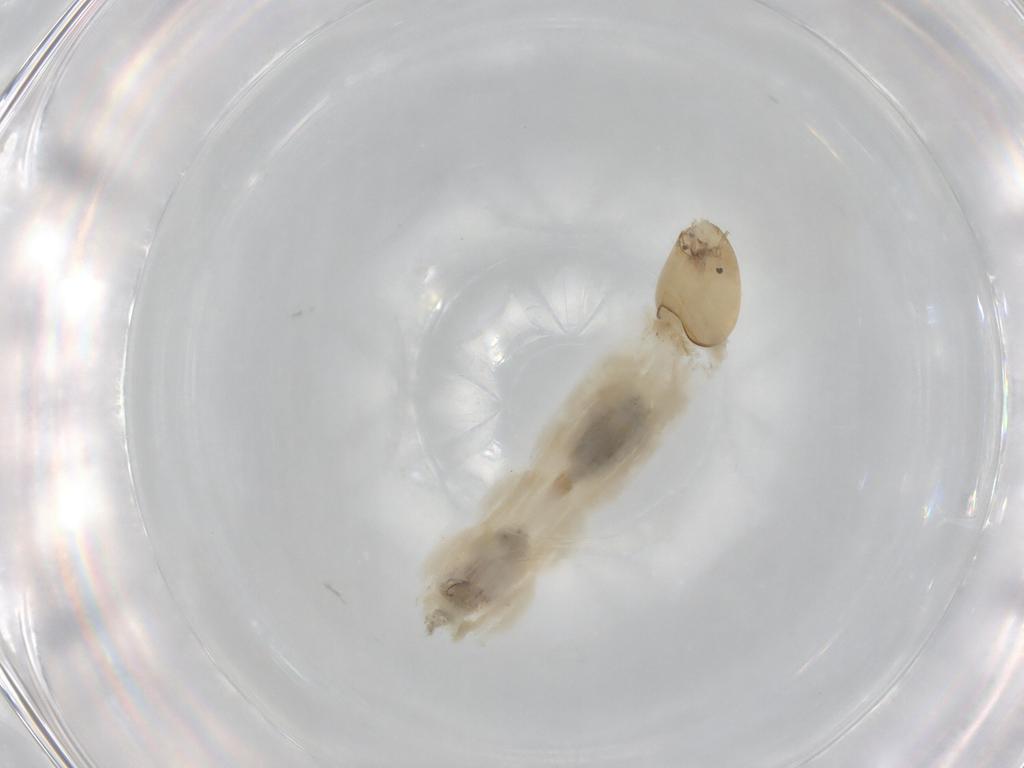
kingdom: Animalia
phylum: Arthropoda
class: Insecta
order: Diptera
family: Chironomidae
